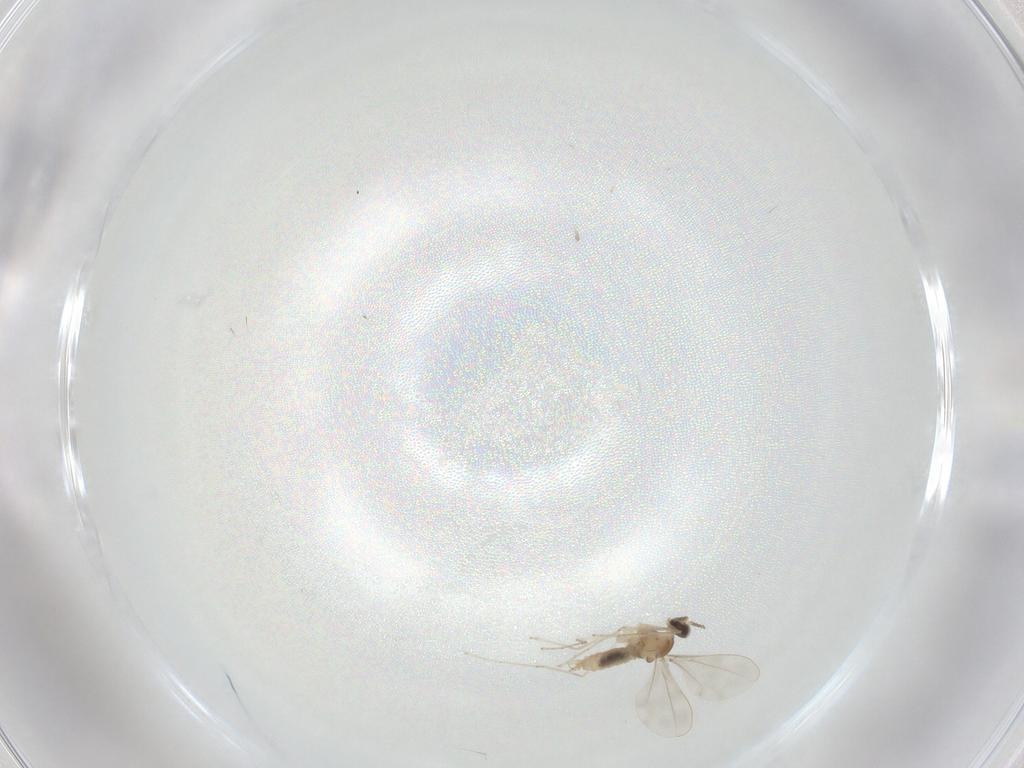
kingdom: Animalia
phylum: Arthropoda
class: Insecta
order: Diptera
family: Cecidomyiidae
